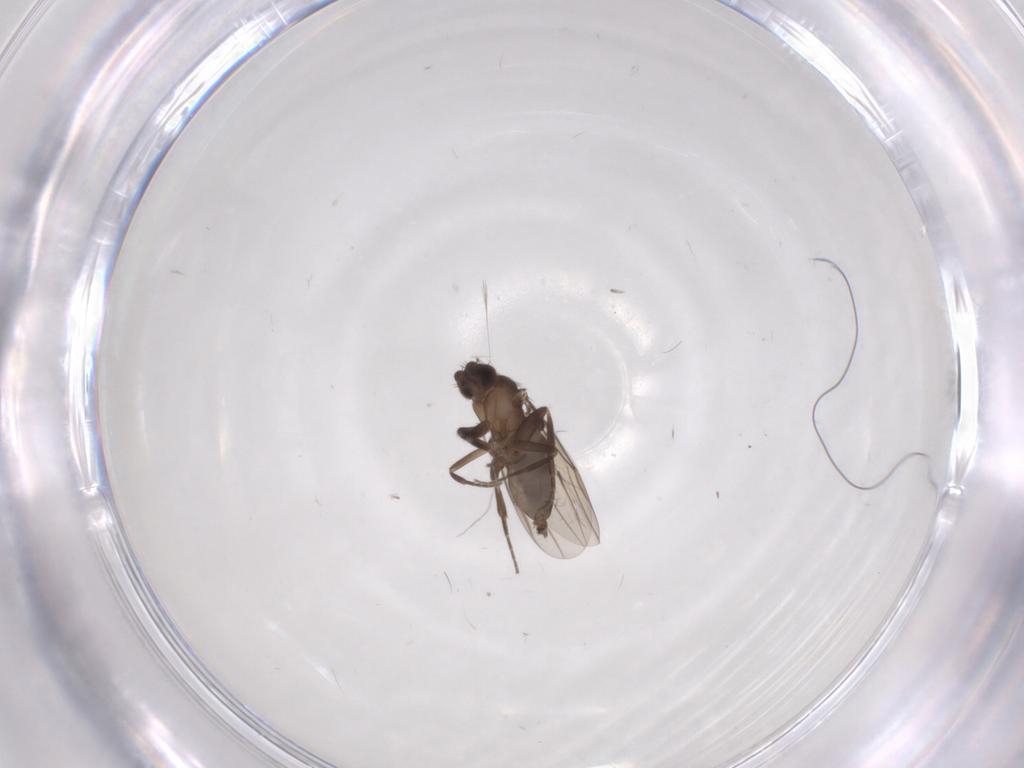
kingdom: Animalia
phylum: Arthropoda
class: Insecta
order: Diptera
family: Phoridae
